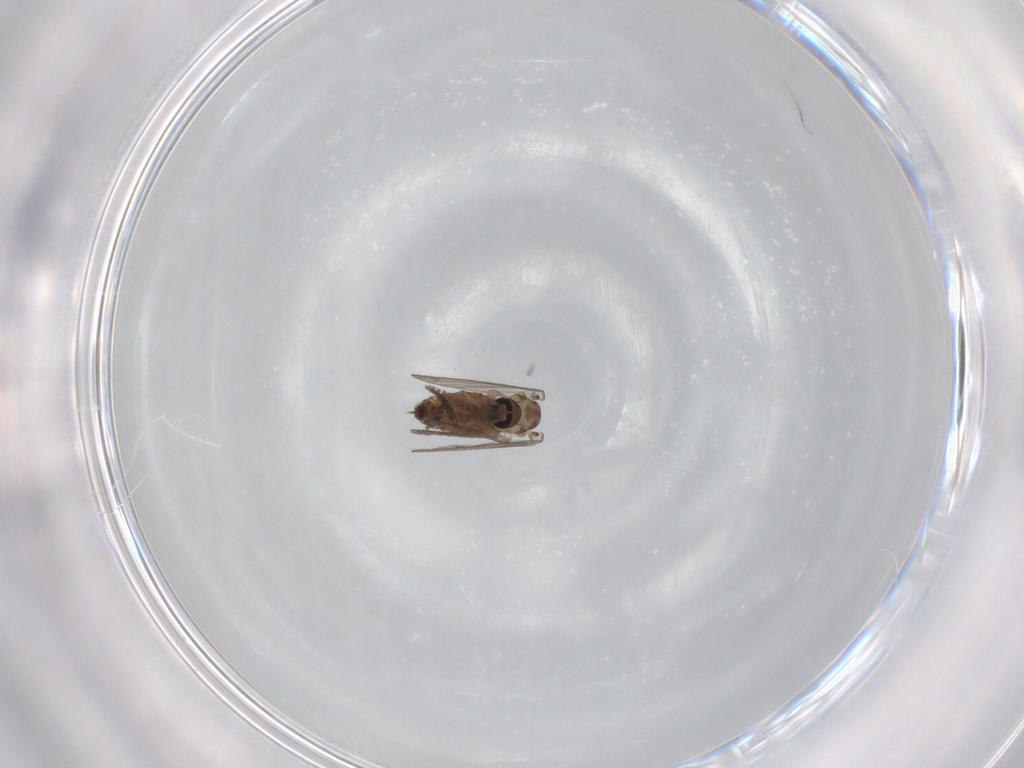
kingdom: Animalia
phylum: Arthropoda
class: Insecta
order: Diptera
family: Psychodidae
